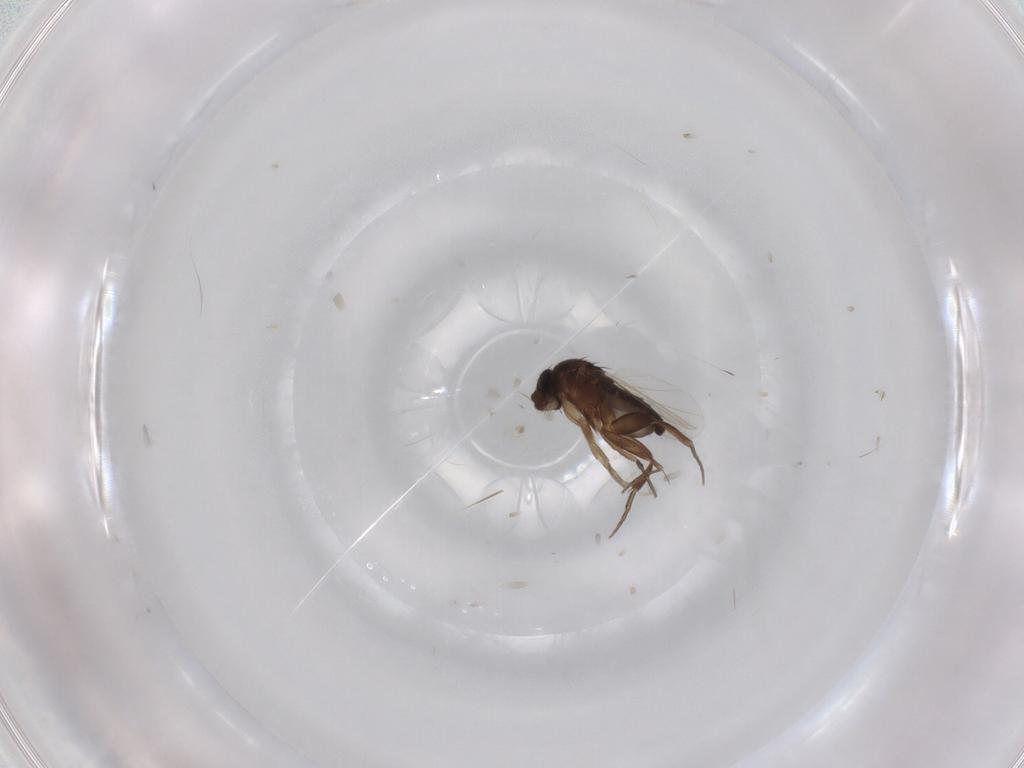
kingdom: Animalia
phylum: Arthropoda
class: Insecta
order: Diptera
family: Phoridae
